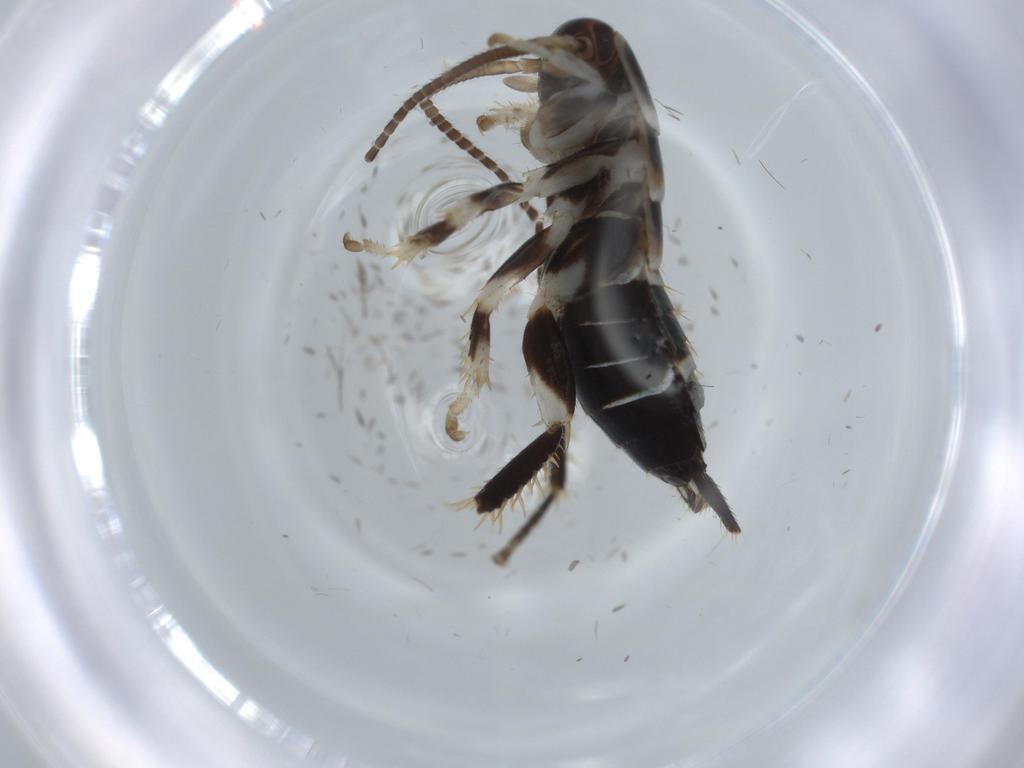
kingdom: Animalia
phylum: Arthropoda
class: Insecta
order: Blattodea
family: Ectobiidae
